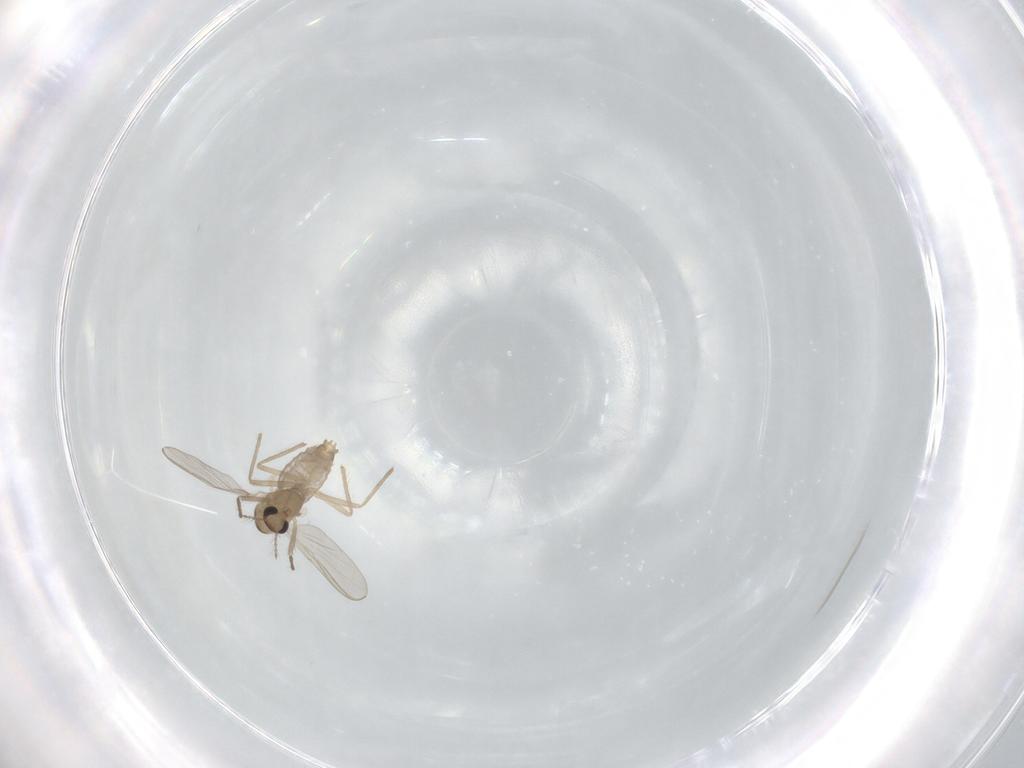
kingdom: Animalia
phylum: Arthropoda
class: Insecta
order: Diptera
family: Chironomidae
